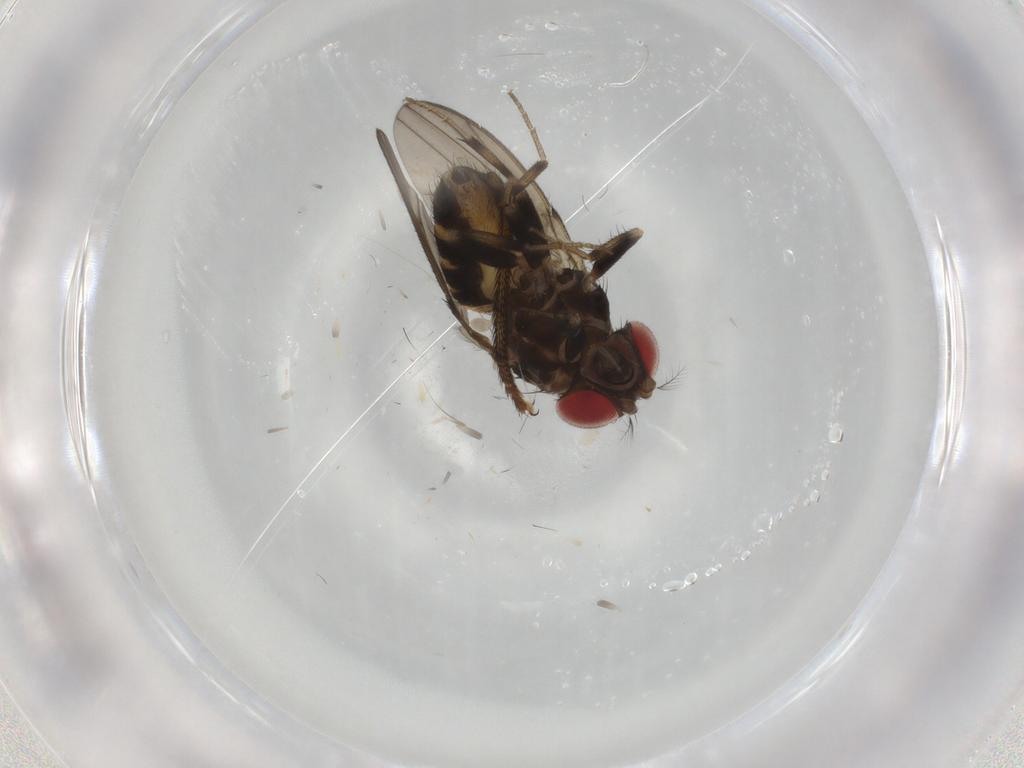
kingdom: Animalia
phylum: Arthropoda
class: Insecta
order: Diptera
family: Drosophilidae
